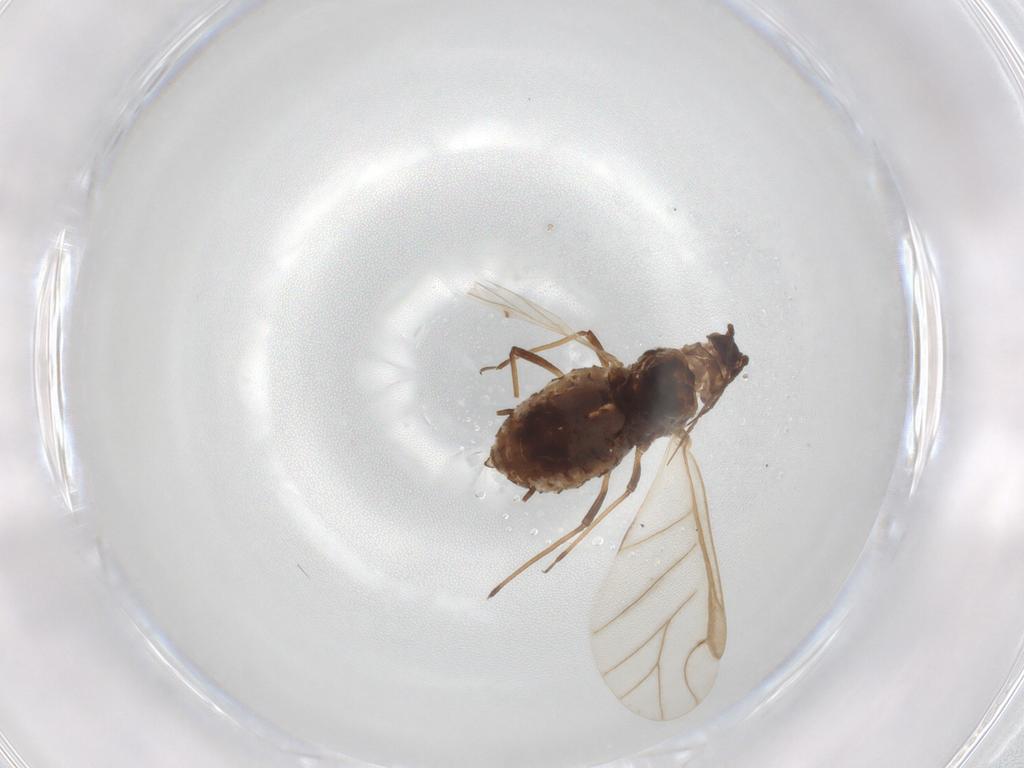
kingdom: Animalia
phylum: Arthropoda
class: Insecta
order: Hemiptera
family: Aphididae
